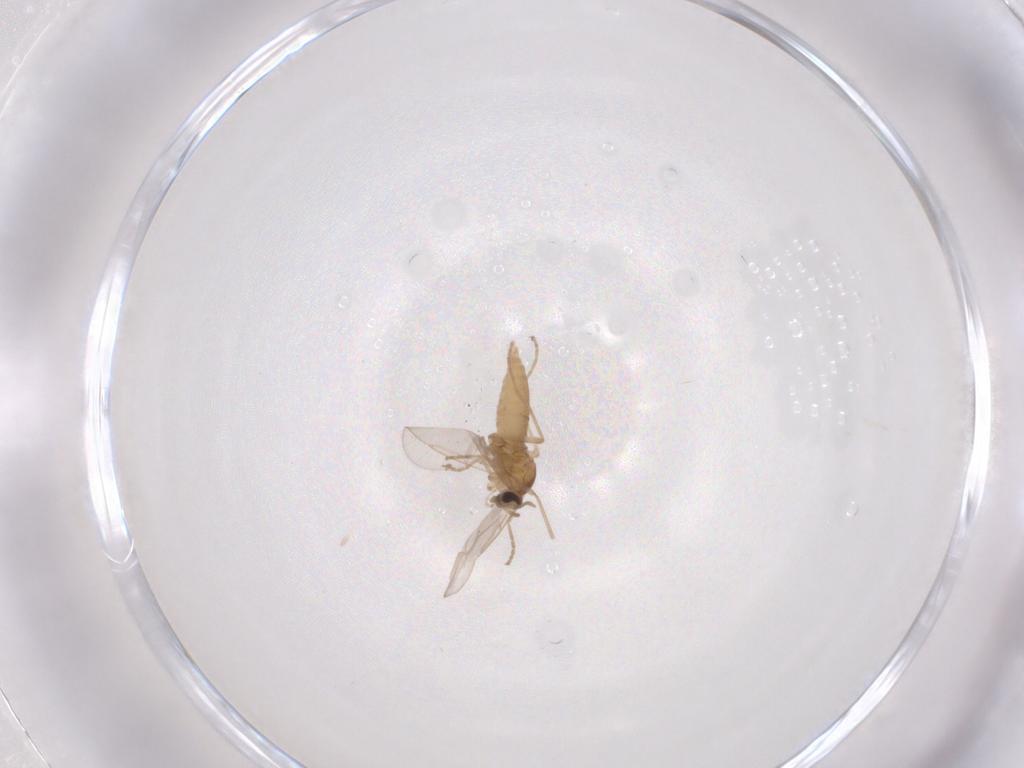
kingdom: Animalia
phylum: Arthropoda
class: Insecta
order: Diptera
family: Cecidomyiidae
